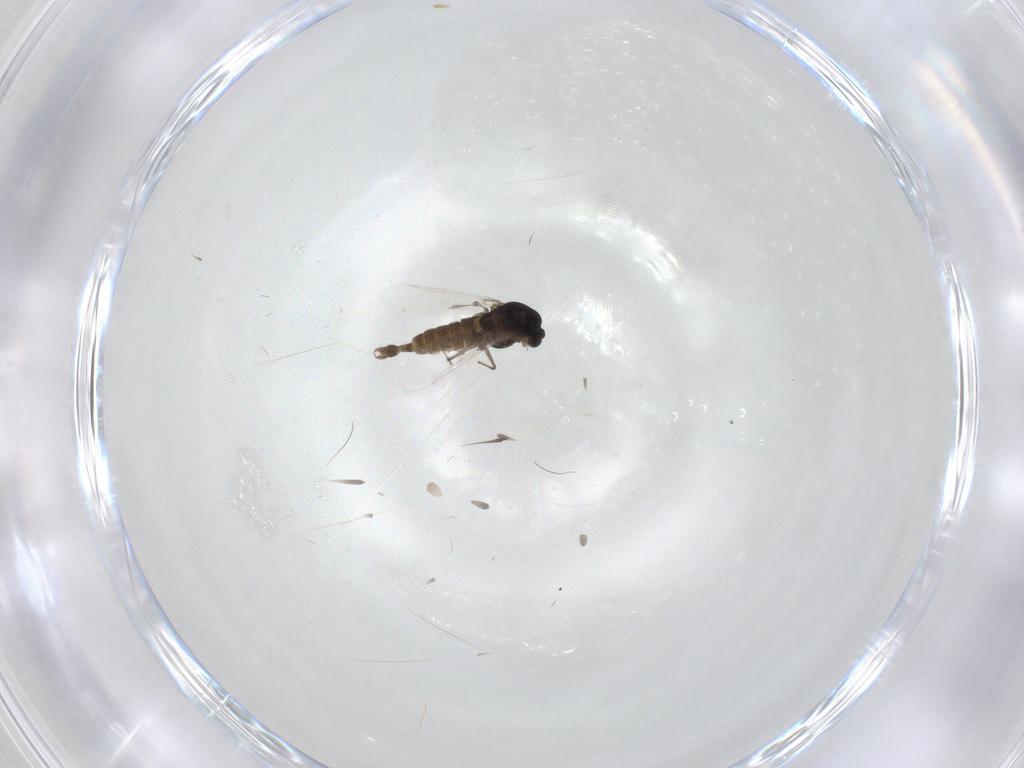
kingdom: Animalia
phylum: Arthropoda
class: Insecta
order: Diptera
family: Chironomidae
